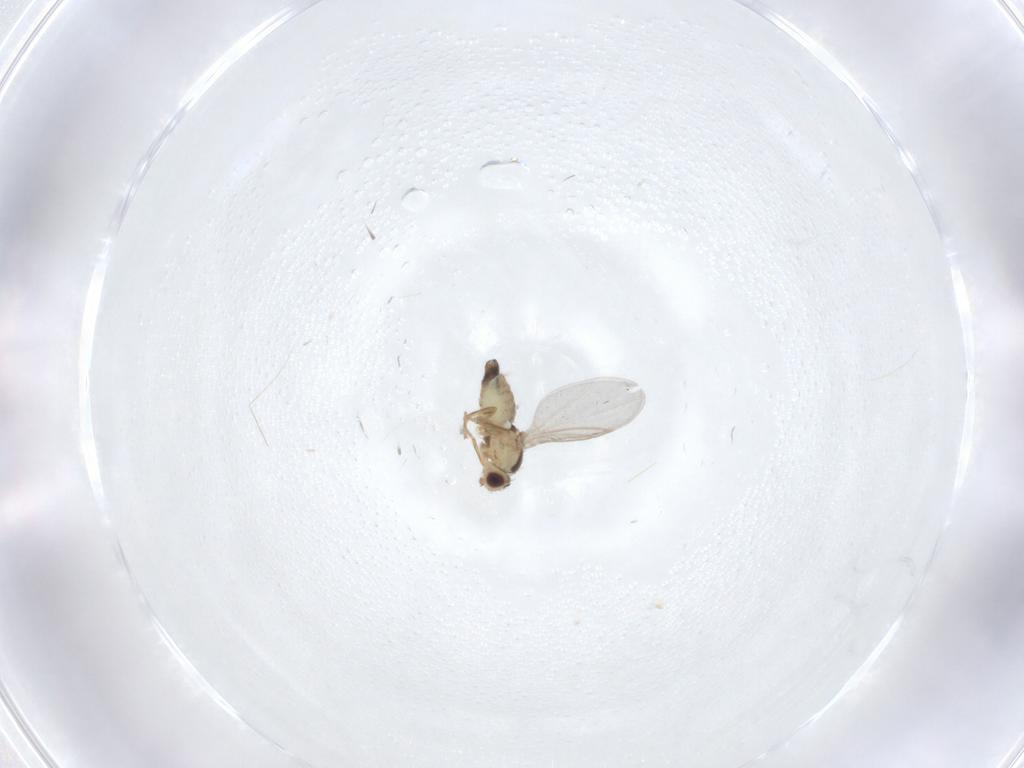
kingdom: Animalia
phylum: Arthropoda
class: Insecta
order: Diptera
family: Agromyzidae
